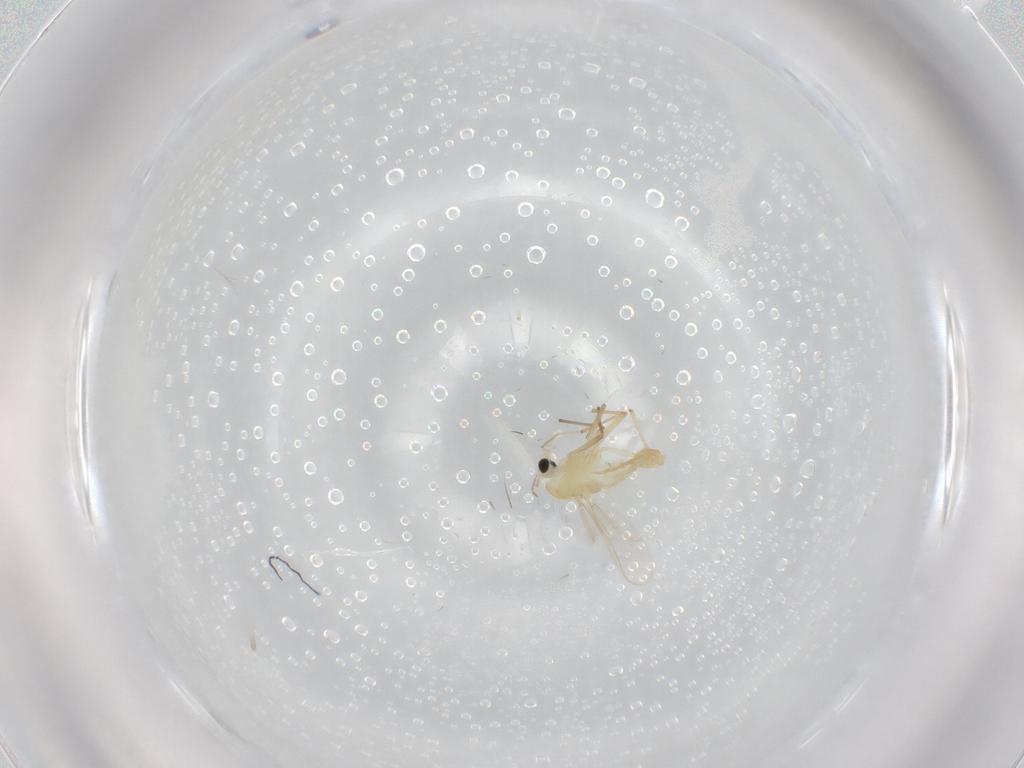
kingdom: Animalia
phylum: Arthropoda
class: Insecta
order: Diptera
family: Chironomidae
